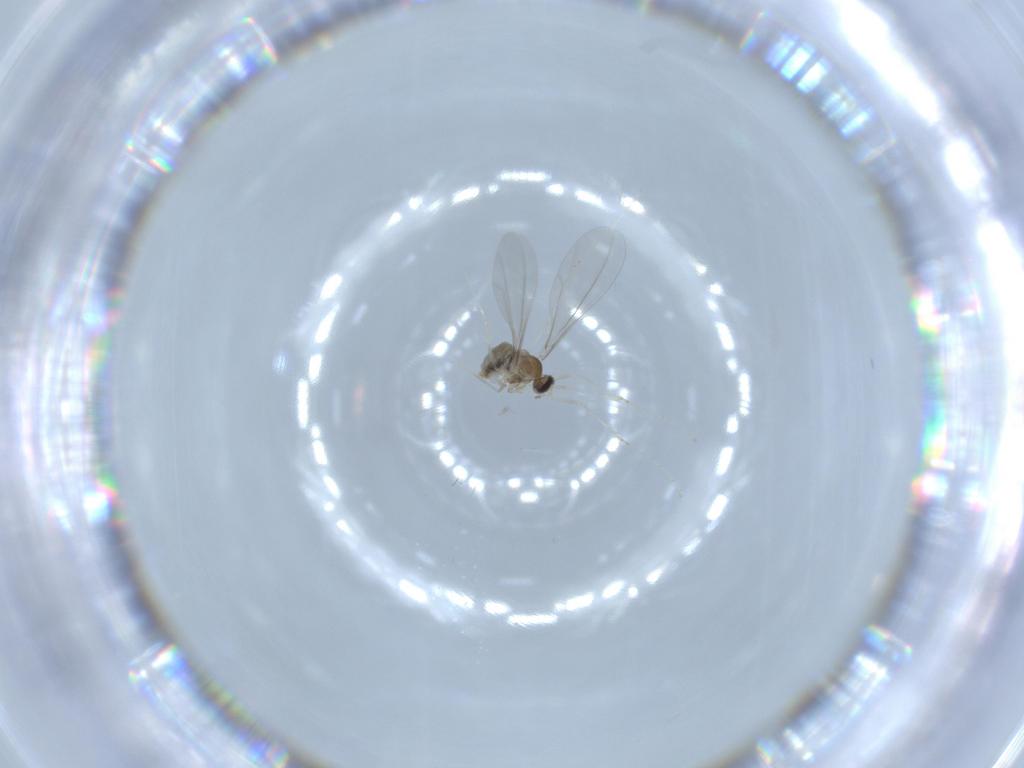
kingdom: Animalia
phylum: Arthropoda
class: Insecta
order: Diptera
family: Cecidomyiidae
